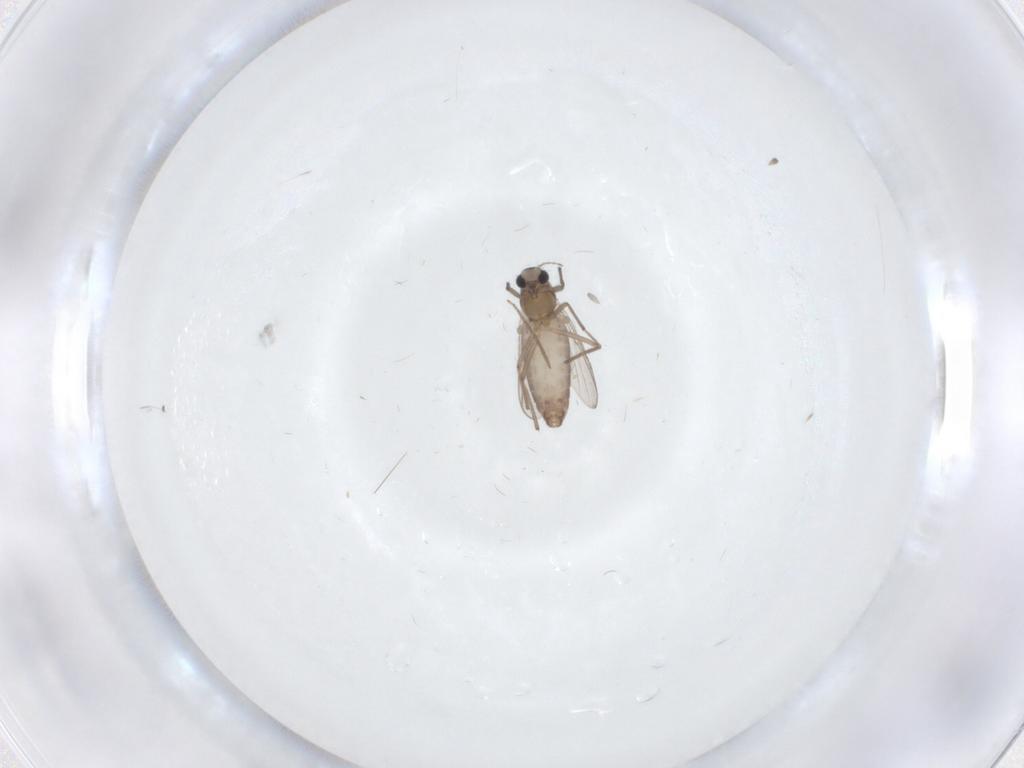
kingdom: Animalia
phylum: Arthropoda
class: Insecta
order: Diptera
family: Chironomidae
